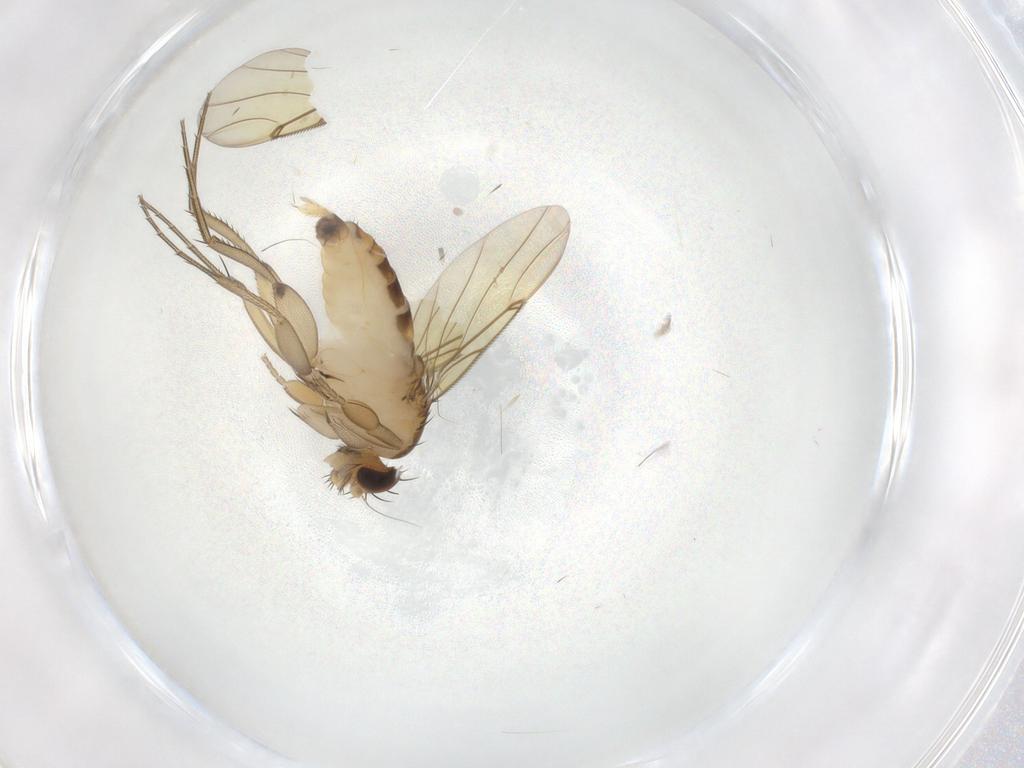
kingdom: Animalia
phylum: Arthropoda
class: Insecta
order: Diptera
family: Phoridae
